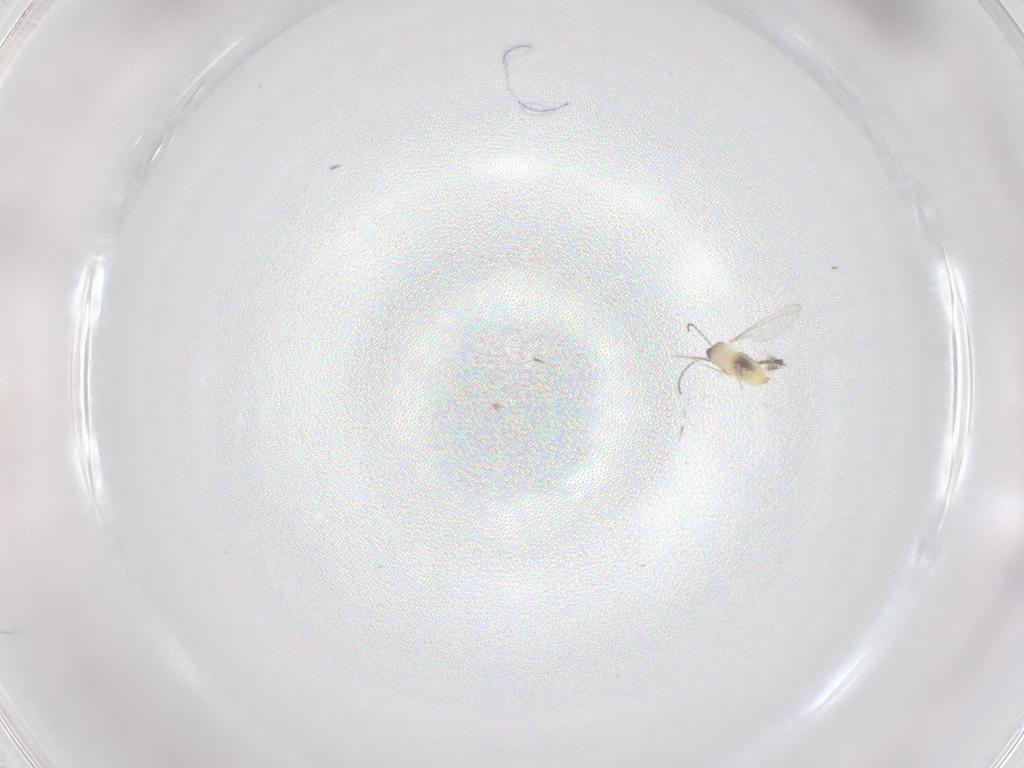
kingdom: Animalia
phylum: Arthropoda
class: Insecta
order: Diptera
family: Cecidomyiidae
